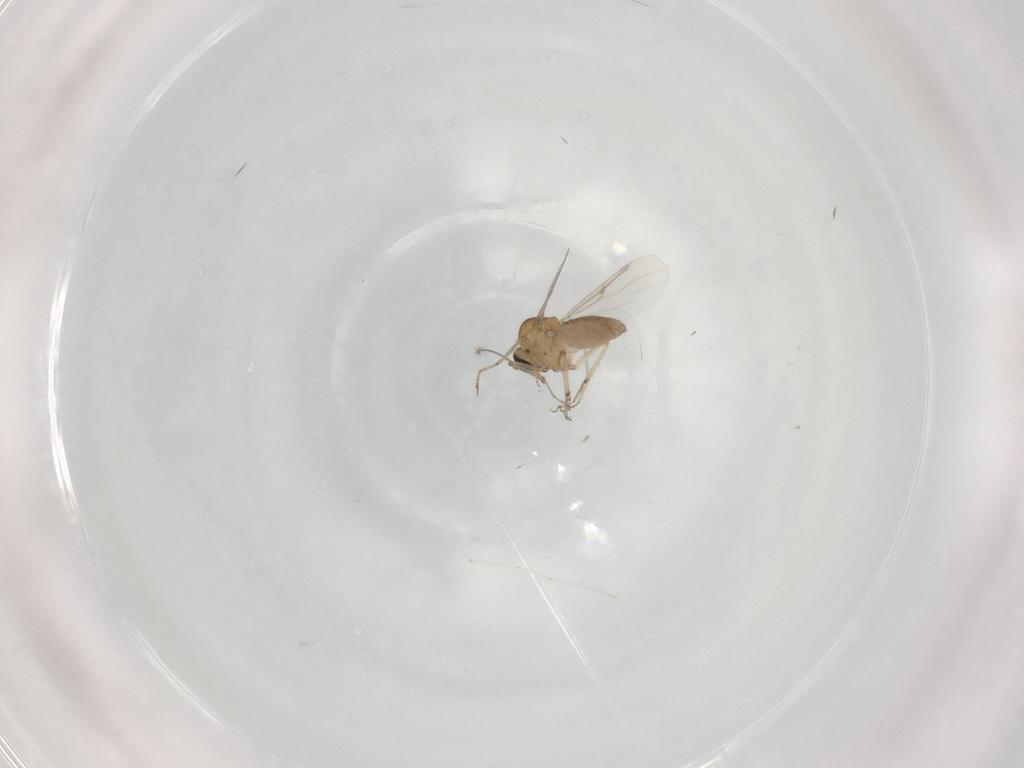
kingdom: Animalia
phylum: Arthropoda
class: Insecta
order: Diptera
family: Ceratopogonidae
